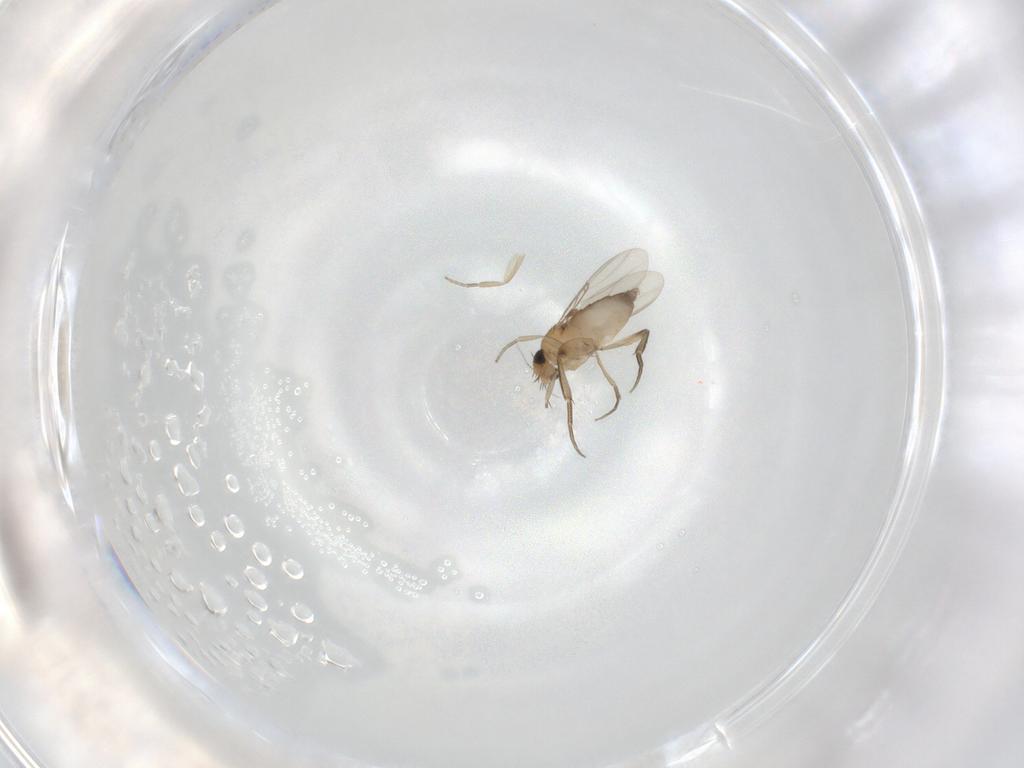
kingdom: Animalia
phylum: Arthropoda
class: Insecta
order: Diptera
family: Phoridae
